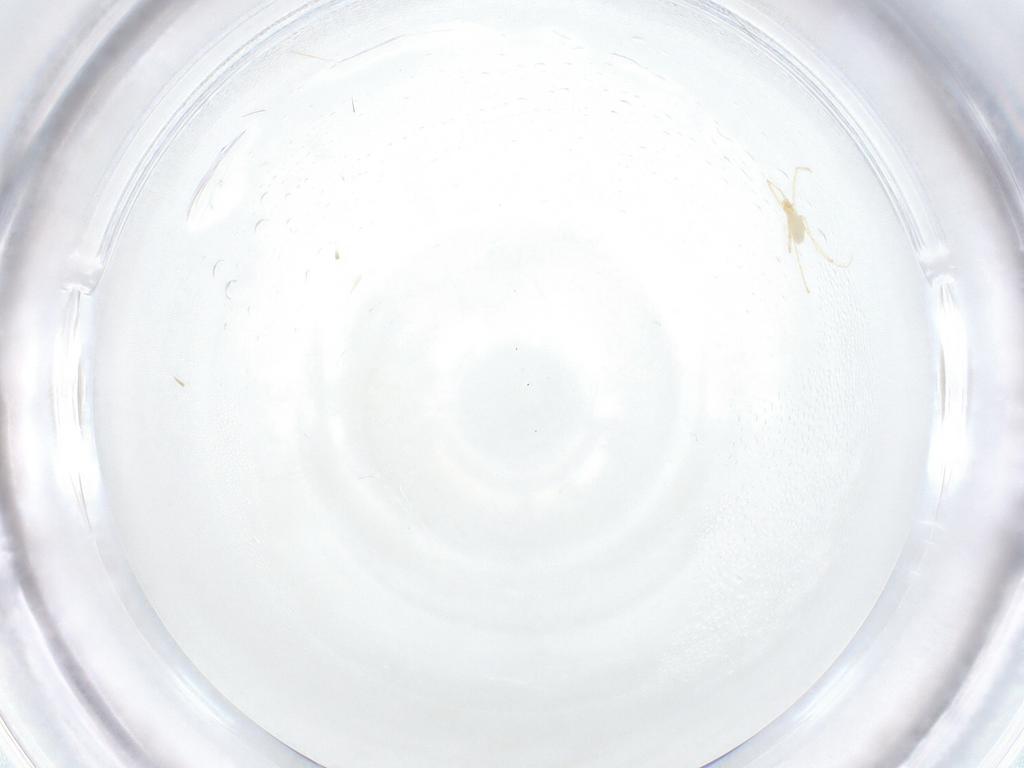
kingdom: Animalia
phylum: Arthropoda
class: Arachnida
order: Trombidiformes
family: Erythraeidae
